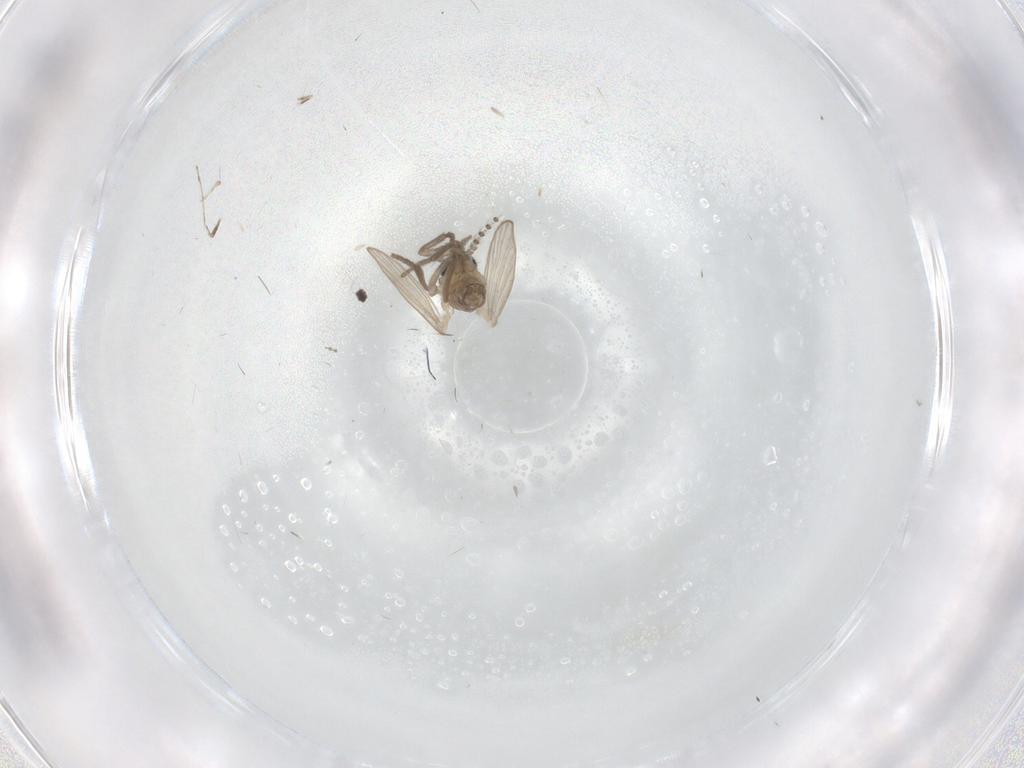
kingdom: Animalia
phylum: Arthropoda
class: Insecta
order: Diptera
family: Psychodidae
